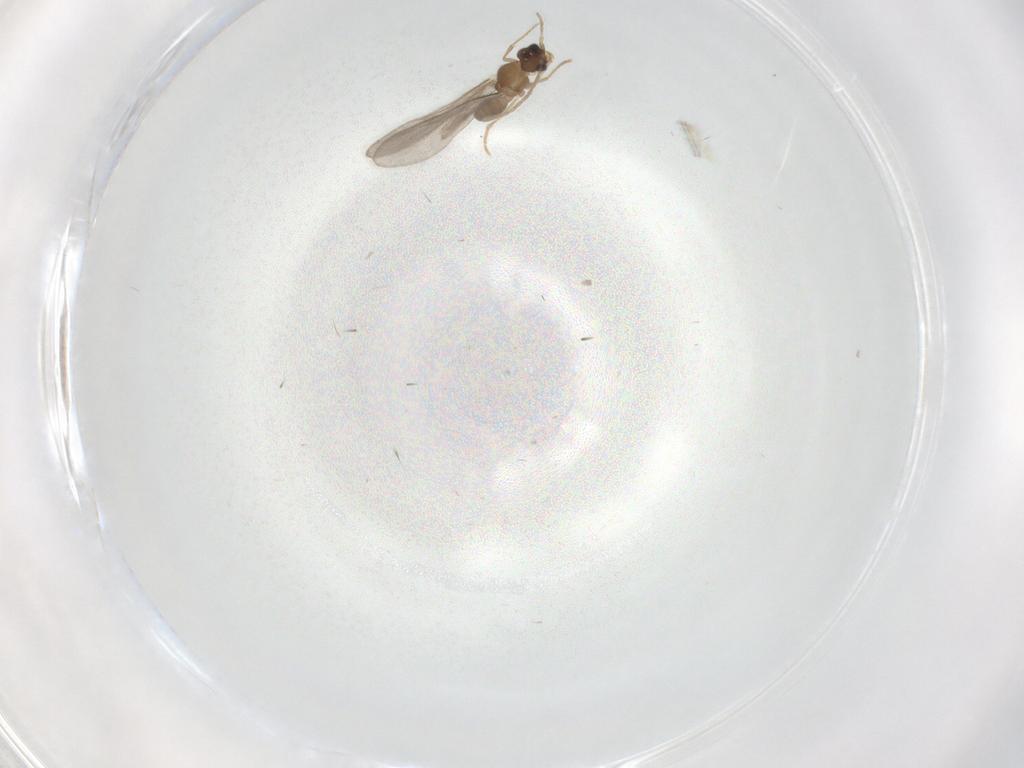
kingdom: Animalia
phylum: Arthropoda
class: Insecta
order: Hymenoptera
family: Formicidae
